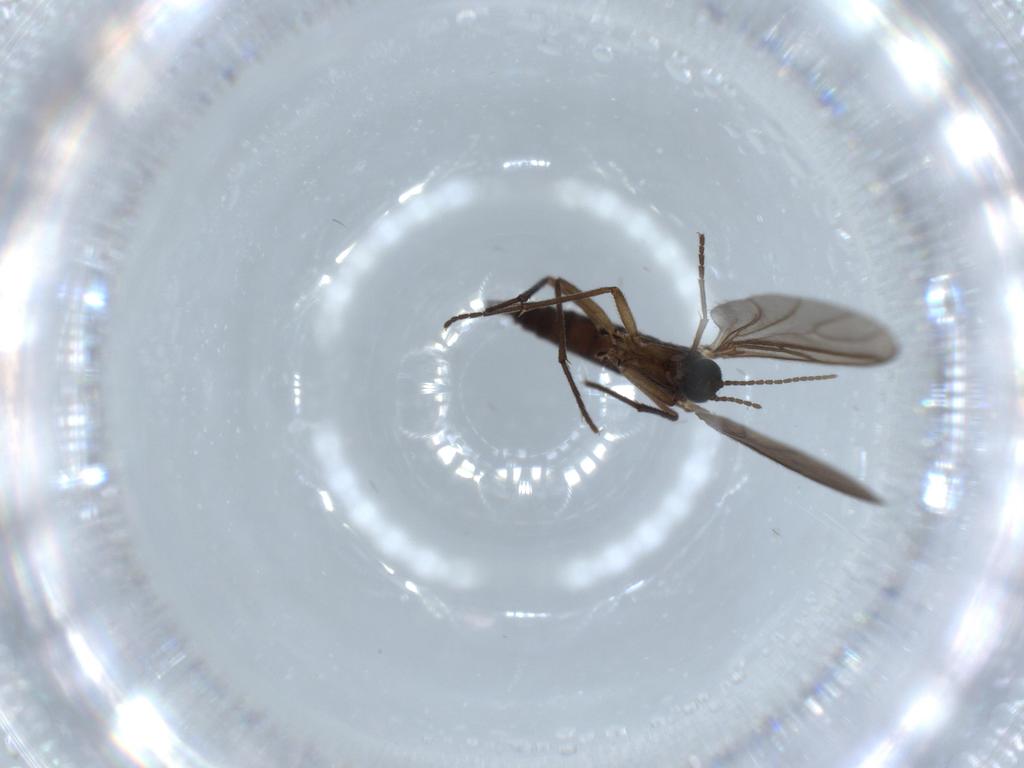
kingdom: Animalia
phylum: Arthropoda
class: Insecta
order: Diptera
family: Sciaridae
